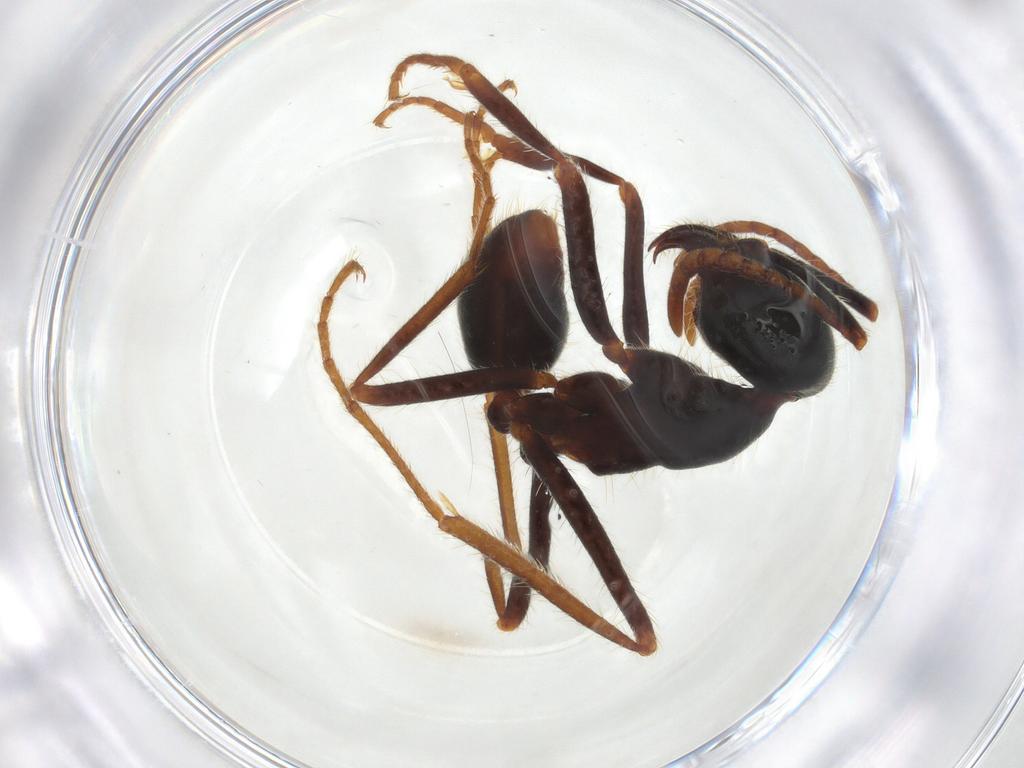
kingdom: Animalia
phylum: Arthropoda
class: Insecta
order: Hymenoptera
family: Formicidae
